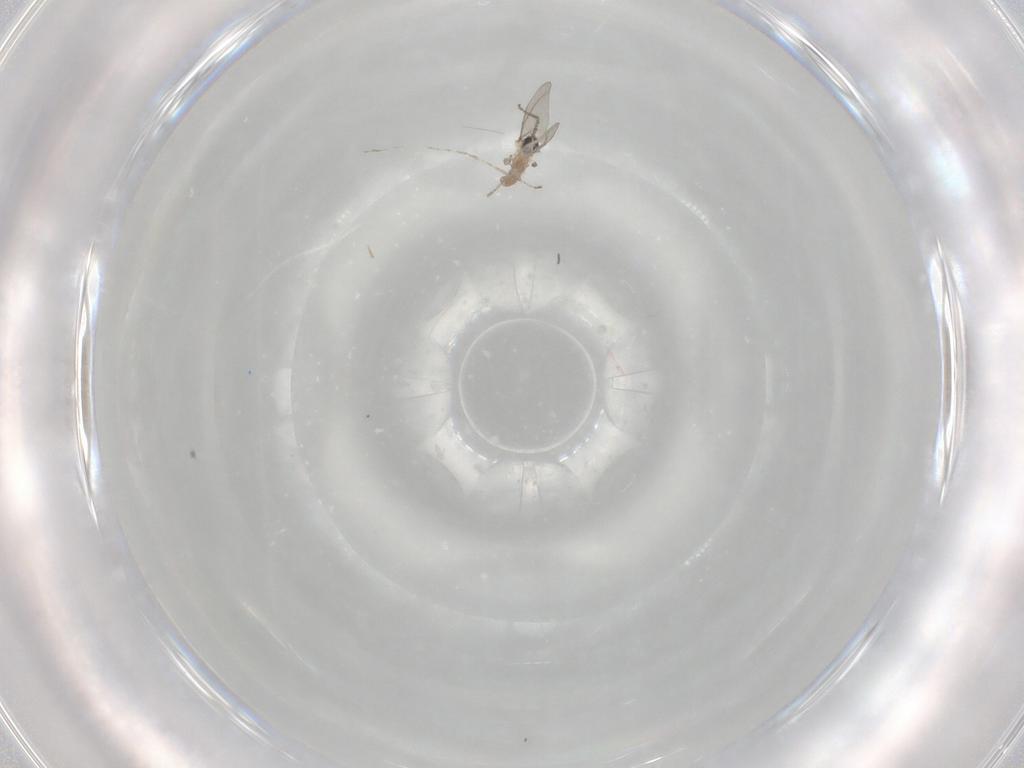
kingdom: Animalia
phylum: Arthropoda
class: Insecta
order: Diptera
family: Cecidomyiidae
